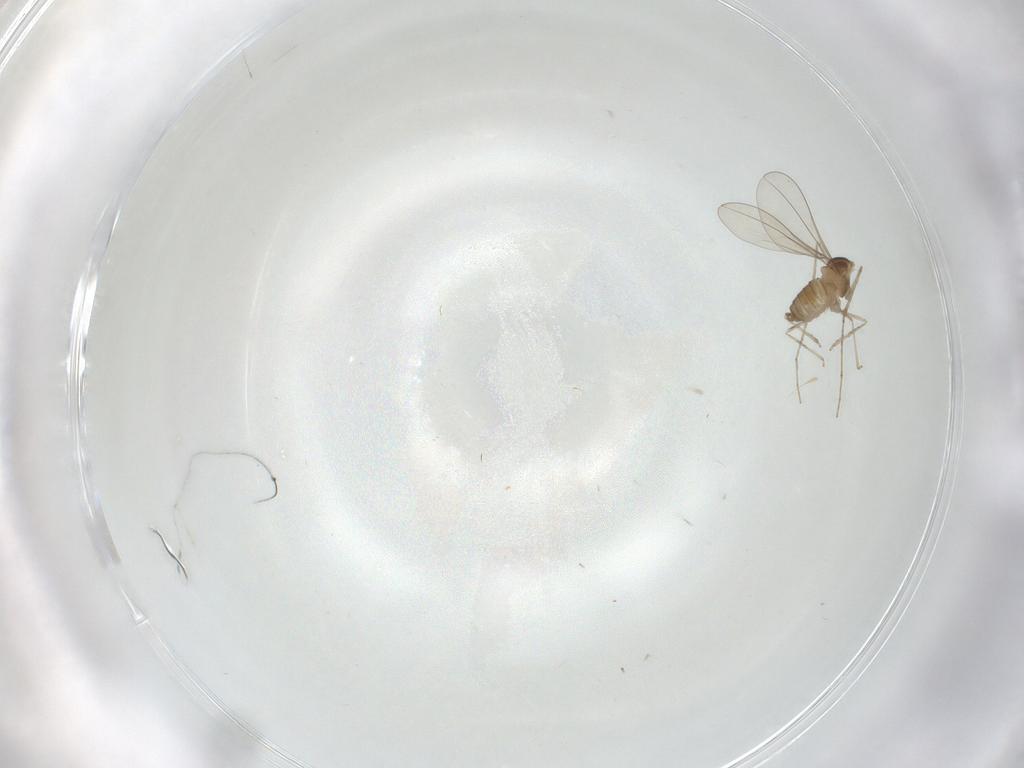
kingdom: Animalia
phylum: Arthropoda
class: Insecta
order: Diptera
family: Cecidomyiidae
